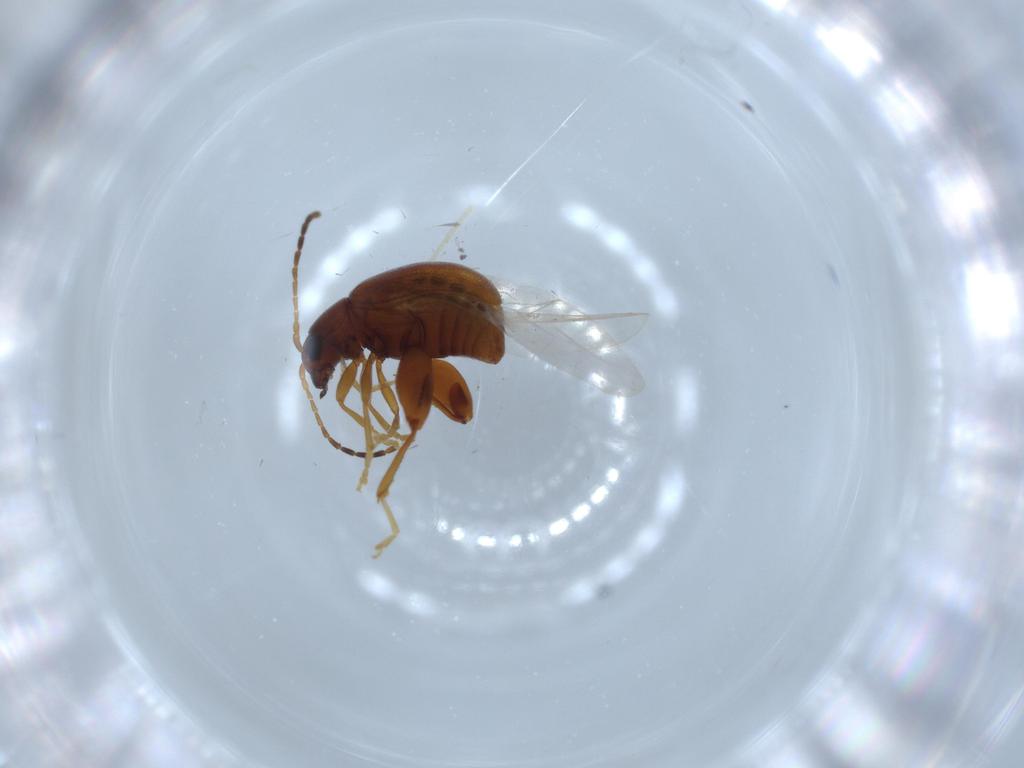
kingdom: Animalia
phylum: Arthropoda
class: Insecta
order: Coleoptera
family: Chrysomelidae
